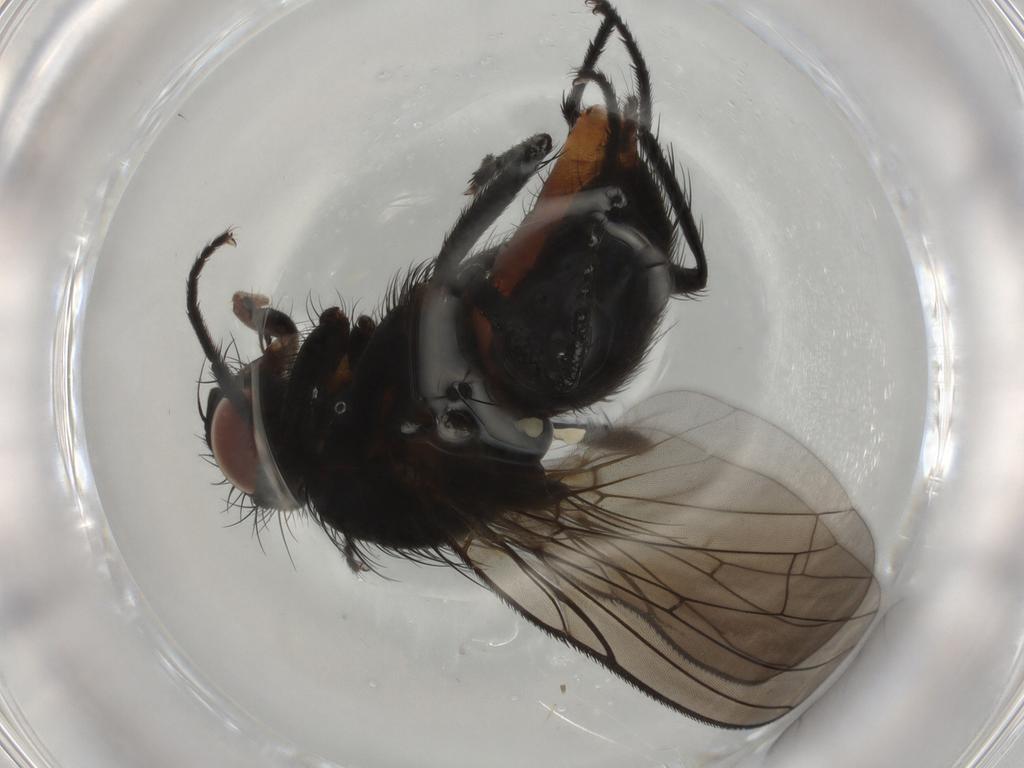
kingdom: Animalia
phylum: Arthropoda
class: Insecta
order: Diptera
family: Anthomyiidae
